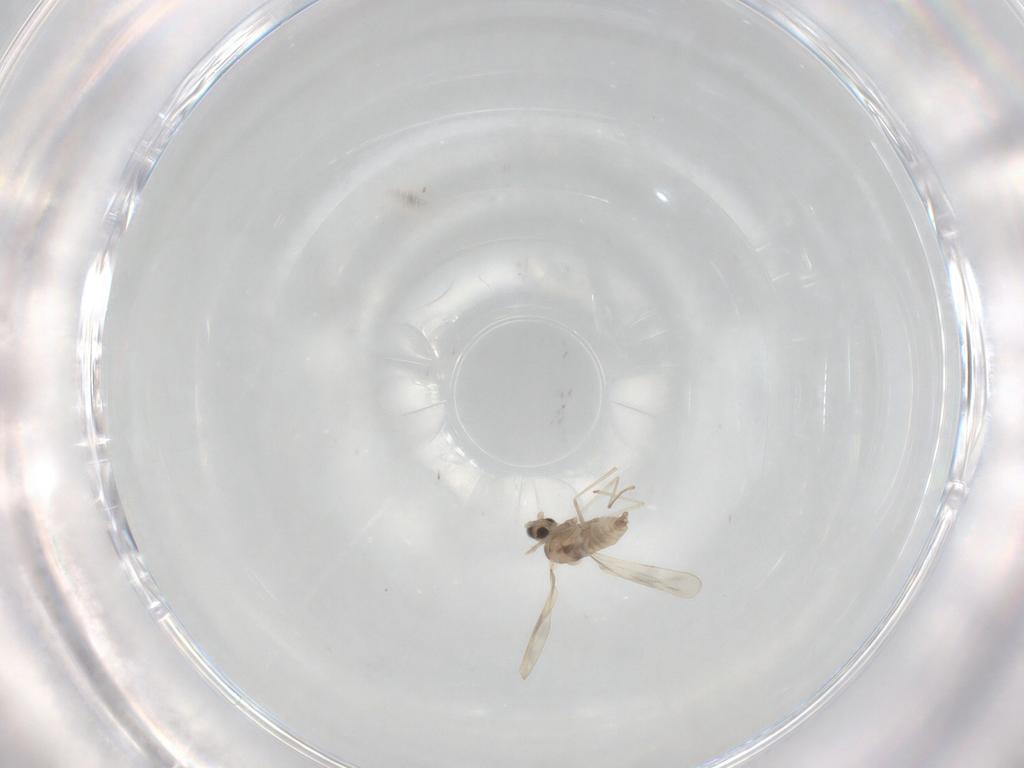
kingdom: Animalia
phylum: Arthropoda
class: Insecta
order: Diptera
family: Cecidomyiidae
